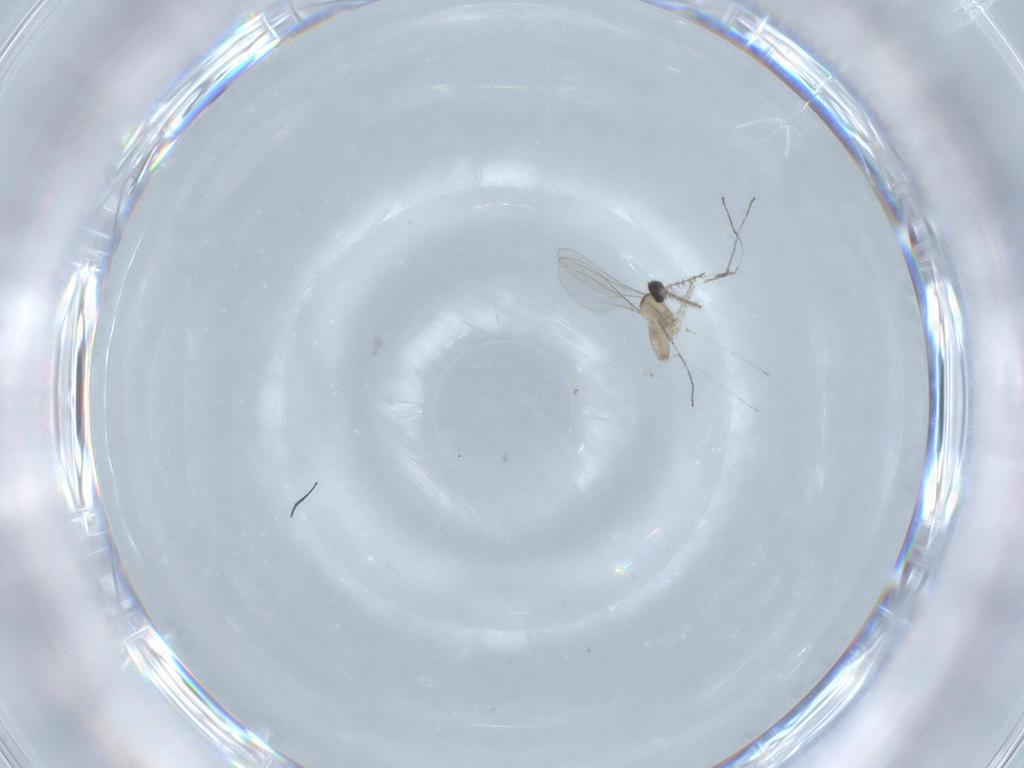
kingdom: Animalia
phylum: Arthropoda
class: Insecta
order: Diptera
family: Cecidomyiidae
